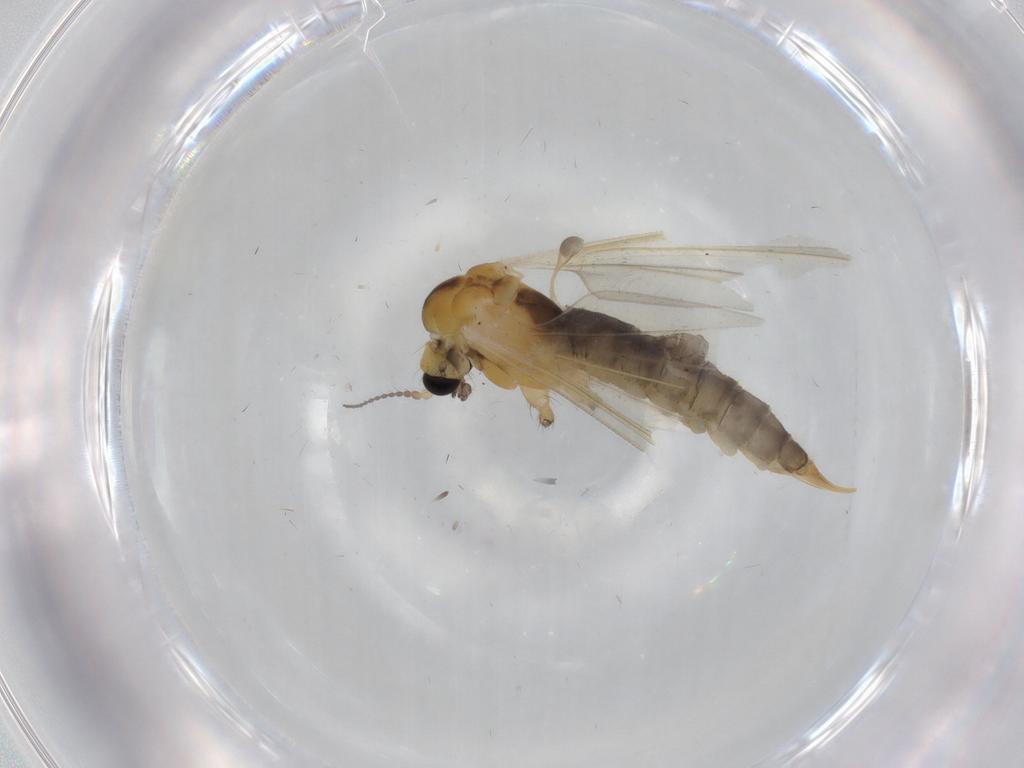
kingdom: Animalia
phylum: Arthropoda
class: Insecta
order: Diptera
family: Limoniidae
